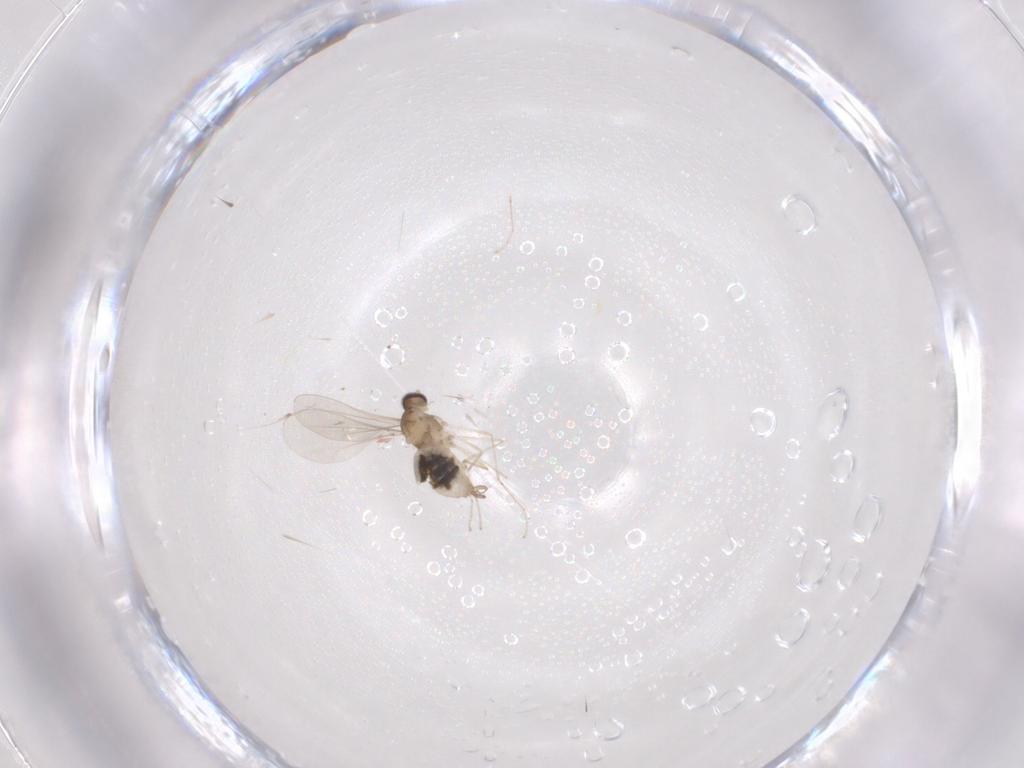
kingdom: Animalia
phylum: Arthropoda
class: Insecta
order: Diptera
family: Cecidomyiidae
